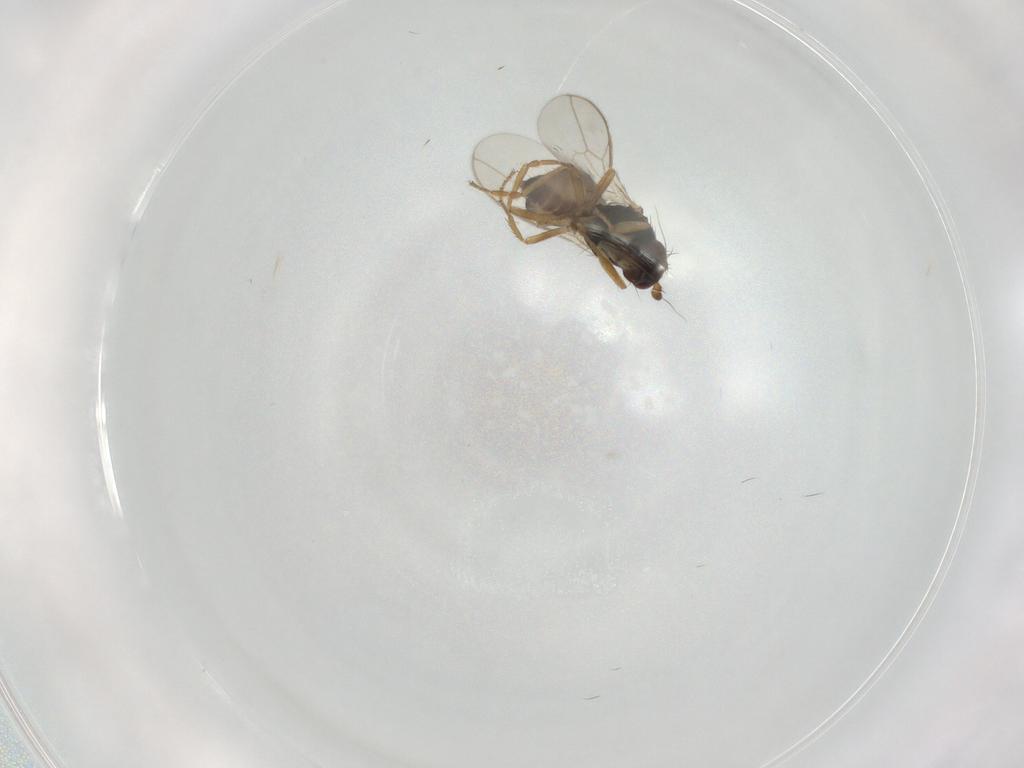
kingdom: Animalia
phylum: Arthropoda
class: Insecta
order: Diptera
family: Sphaeroceridae
